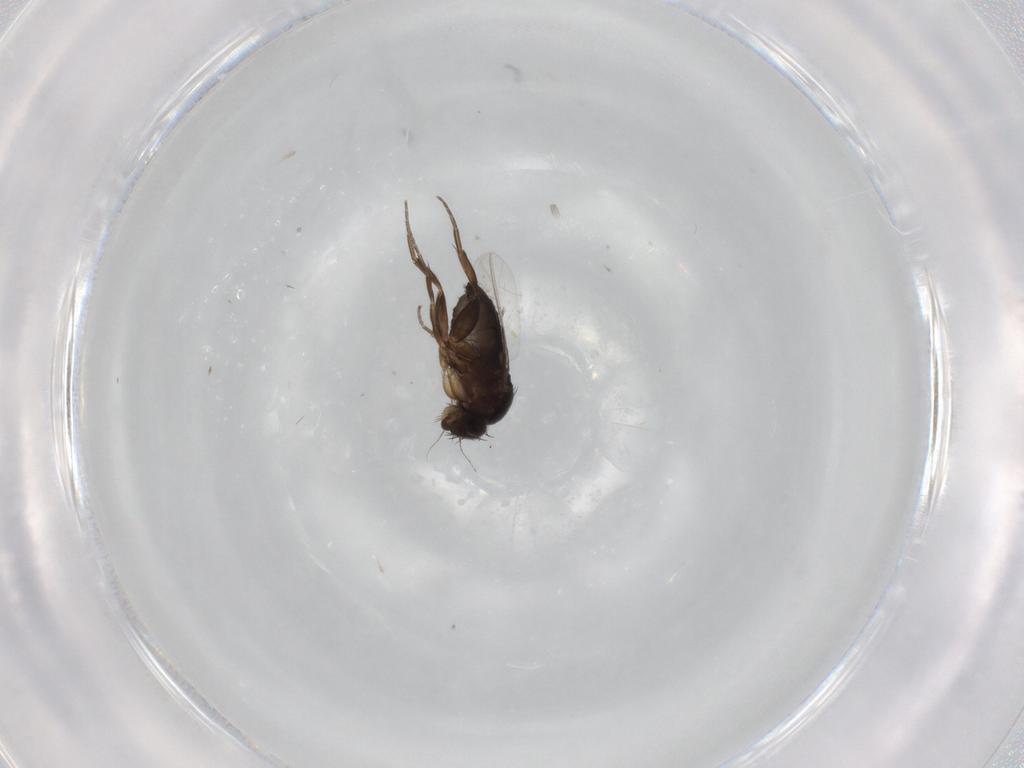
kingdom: Animalia
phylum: Arthropoda
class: Insecta
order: Diptera
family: Phoridae
